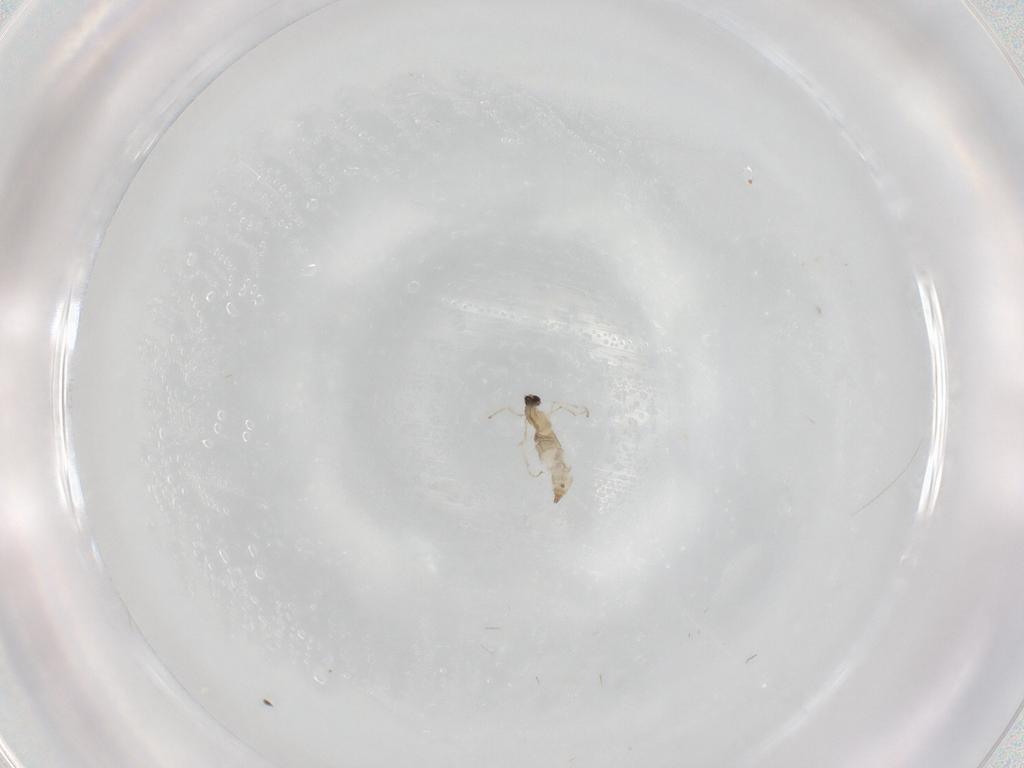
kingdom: Animalia
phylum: Arthropoda
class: Insecta
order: Diptera
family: Cecidomyiidae
